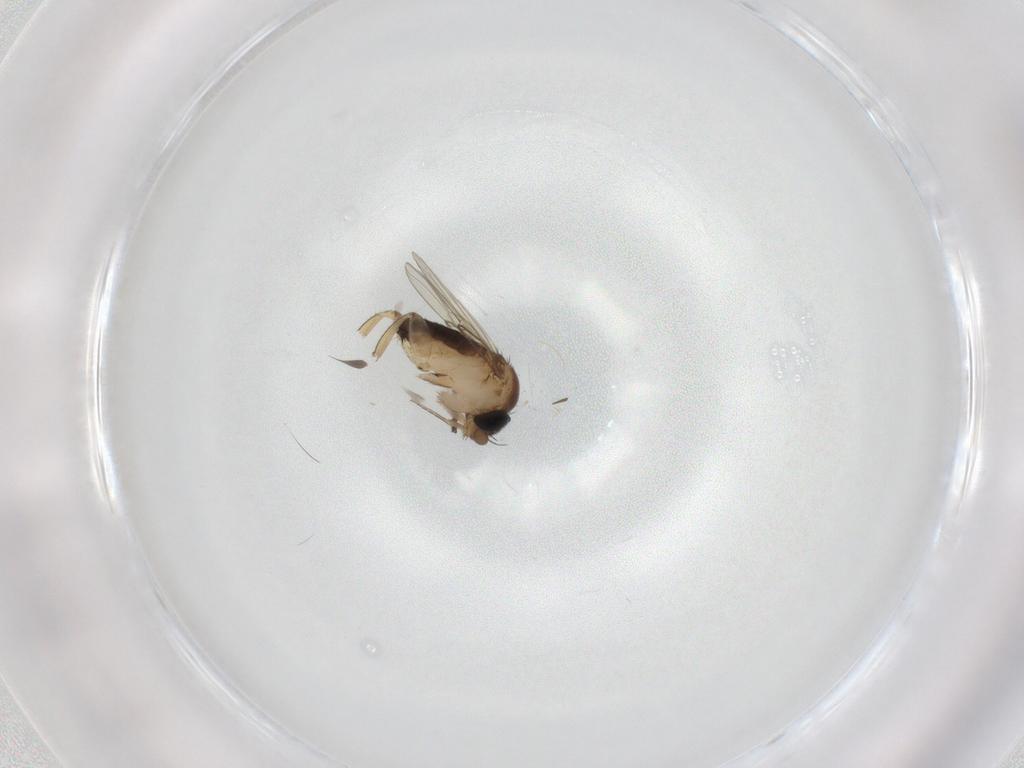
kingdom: Animalia
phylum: Arthropoda
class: Insecta
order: Diptera
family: Phoridae
